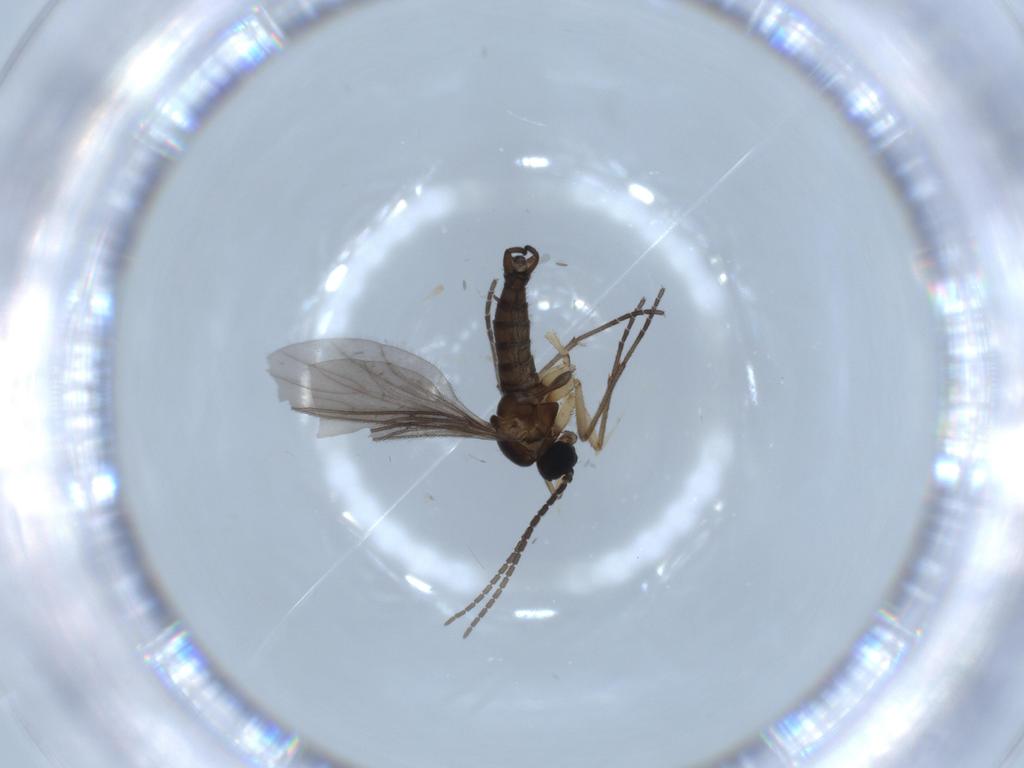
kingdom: Animalia
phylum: Arthropoda
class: Insecta
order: Diptera
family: Sciaridae
